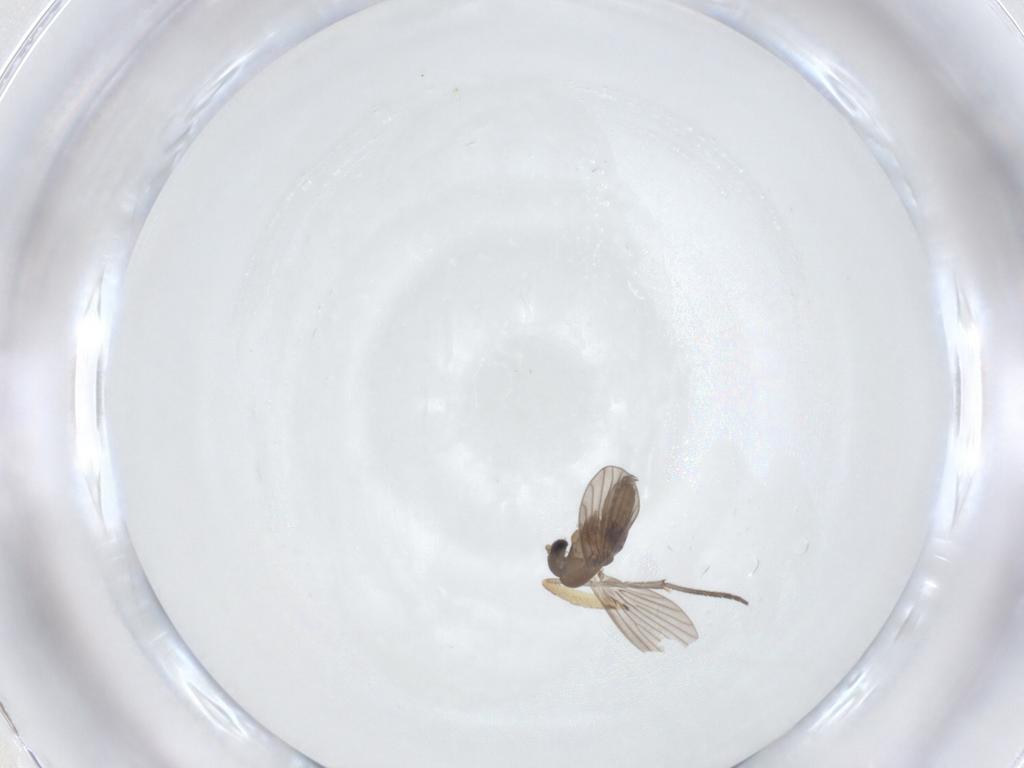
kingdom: Animalia
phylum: Arthropoda
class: Insecta
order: Diptera
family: Sciaridae
